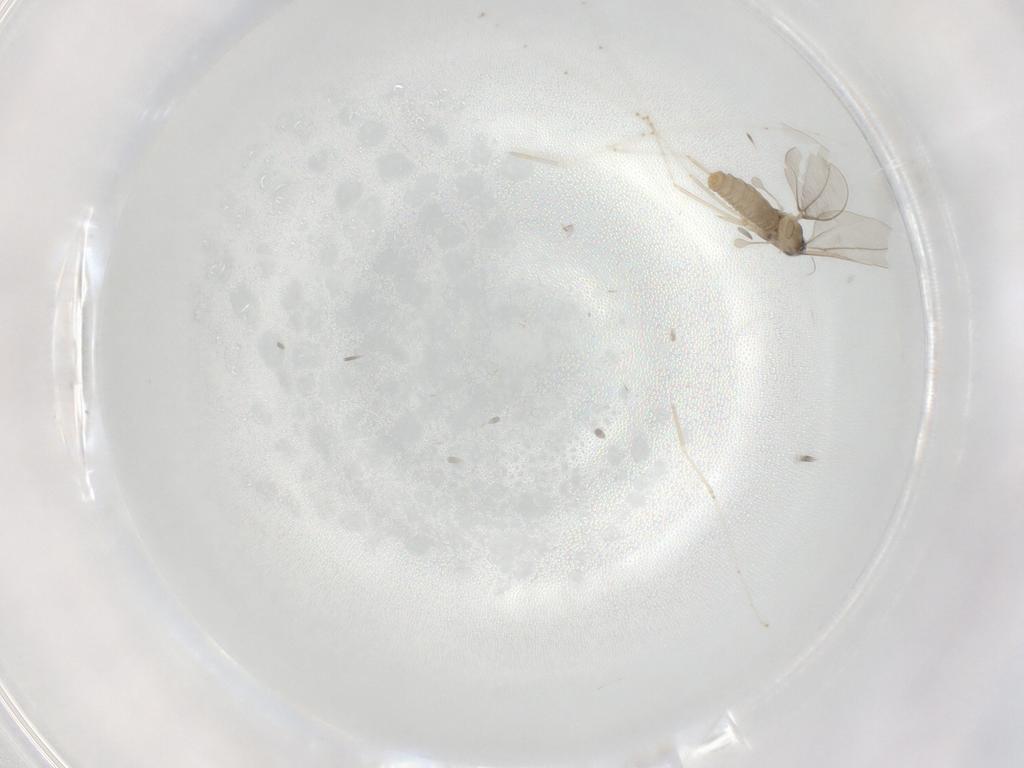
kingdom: Animalia
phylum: Arthropoda
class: Insecta
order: Diptera
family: Cecidomyiidae
